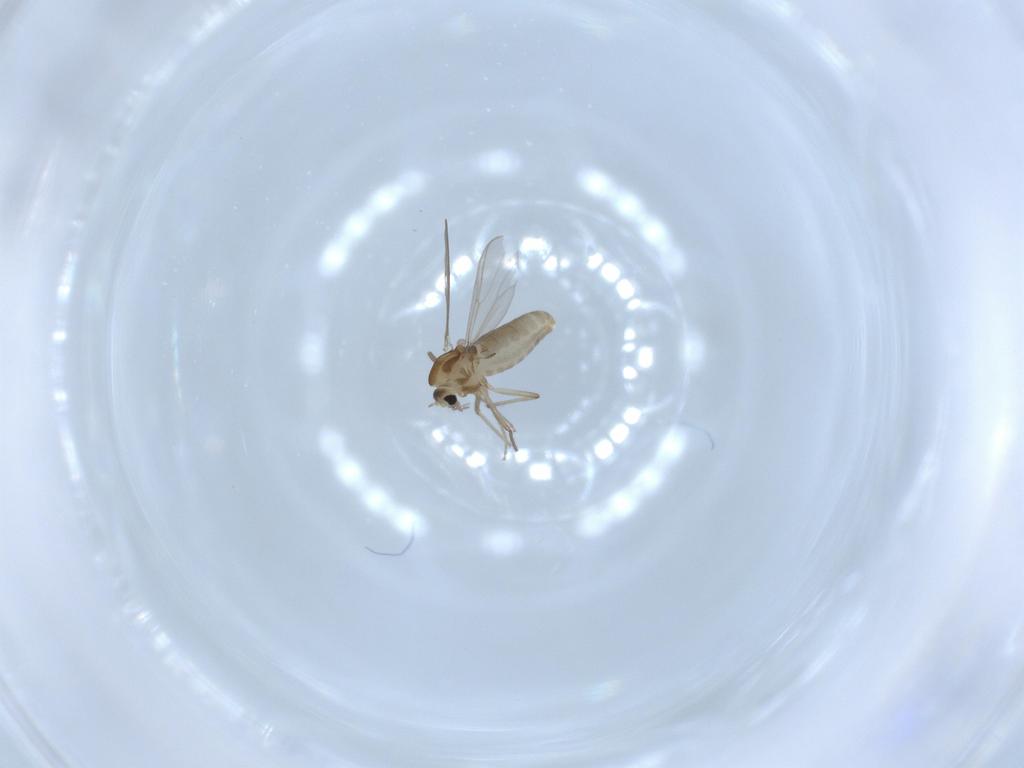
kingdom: Animalia
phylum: Arthropoda
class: Insecta
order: Diptera
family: Chironomidae
